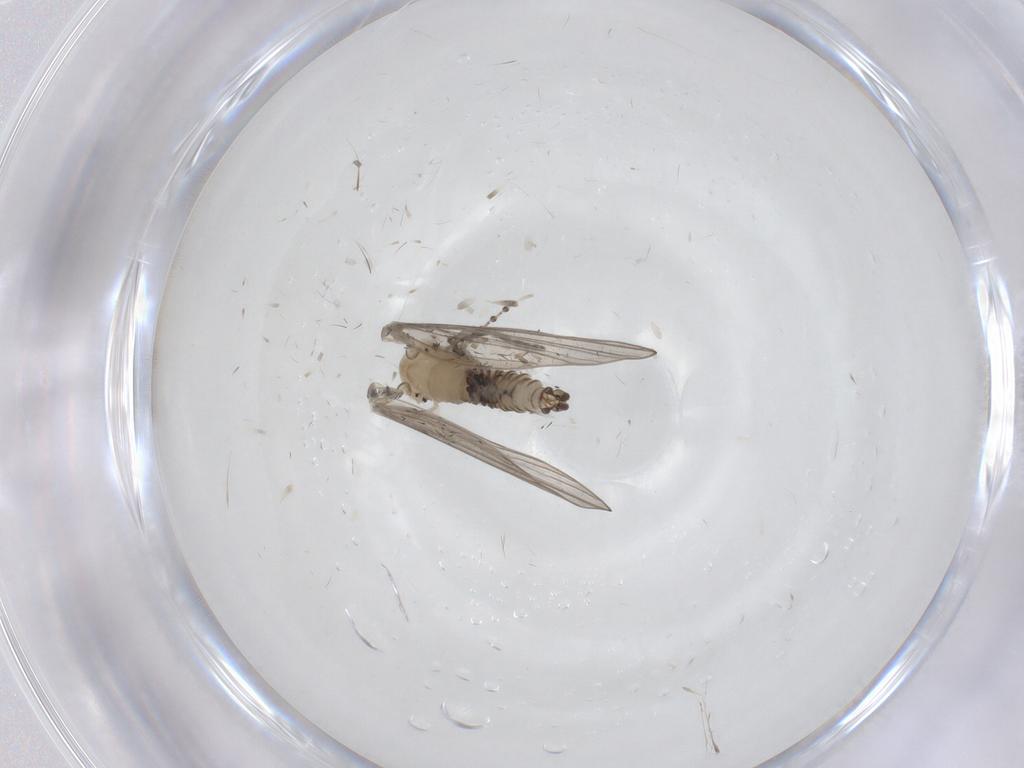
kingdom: Animalia
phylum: Arthropoda
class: Insecta
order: Diptera
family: Psychodidae
